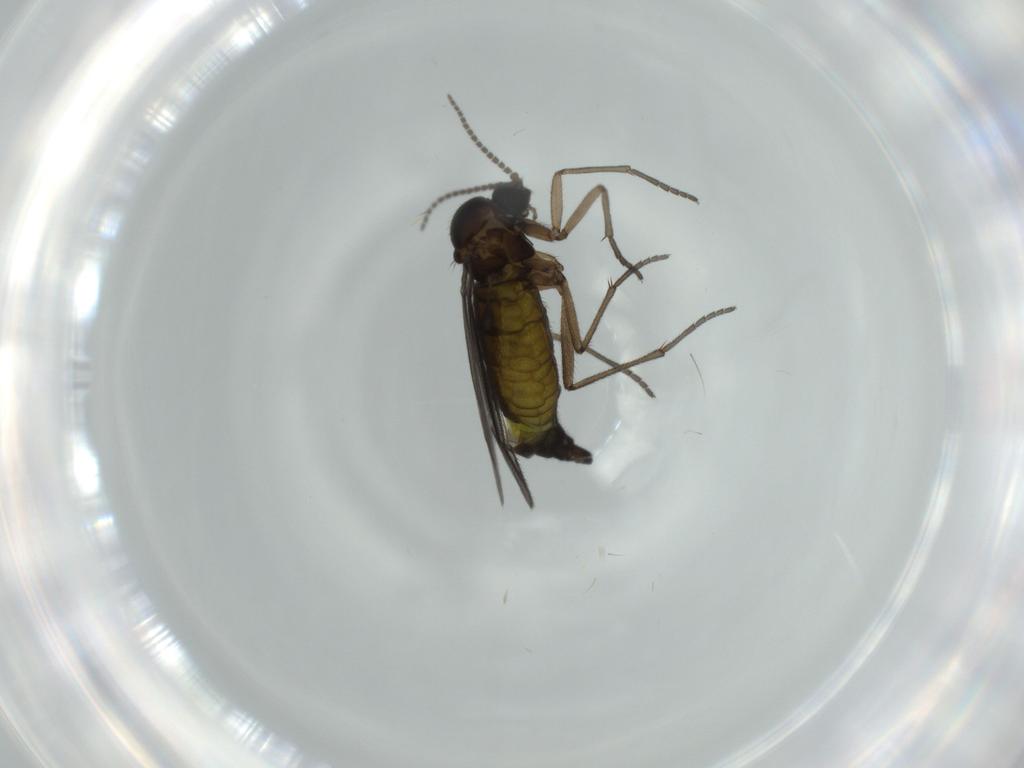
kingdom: Animalia
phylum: Arthropoda
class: Insecta
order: Diptera
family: Sciaridae
